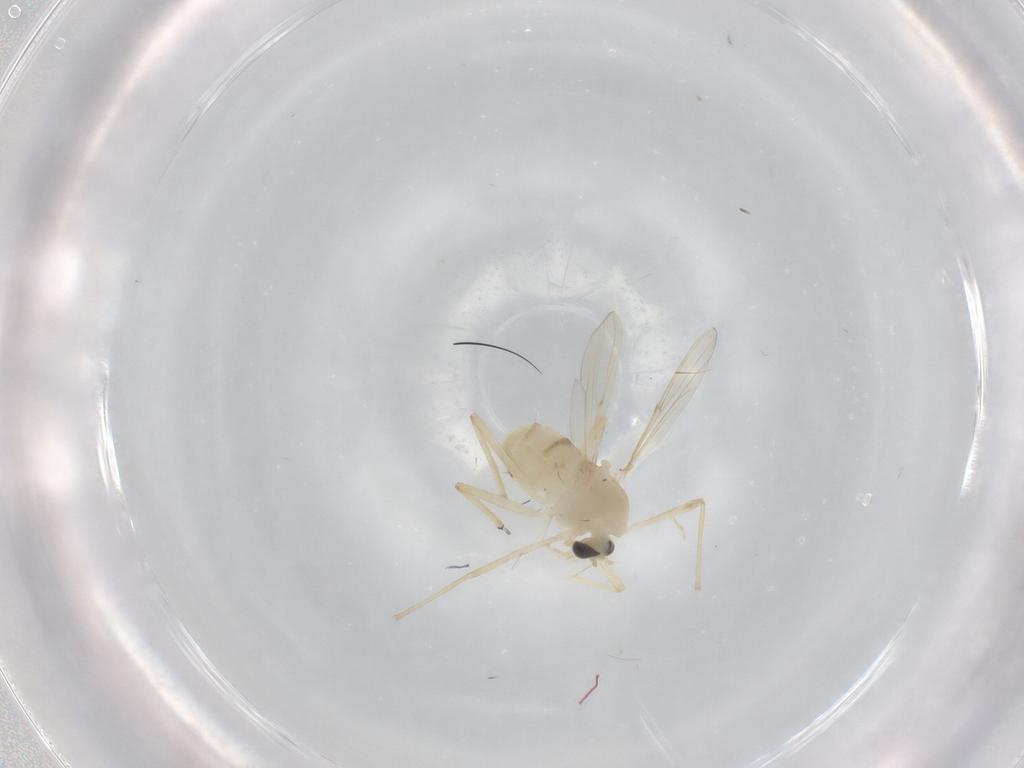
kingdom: Animalia
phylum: Arthropoda
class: Insecta
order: Diptera
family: Chironomidae
